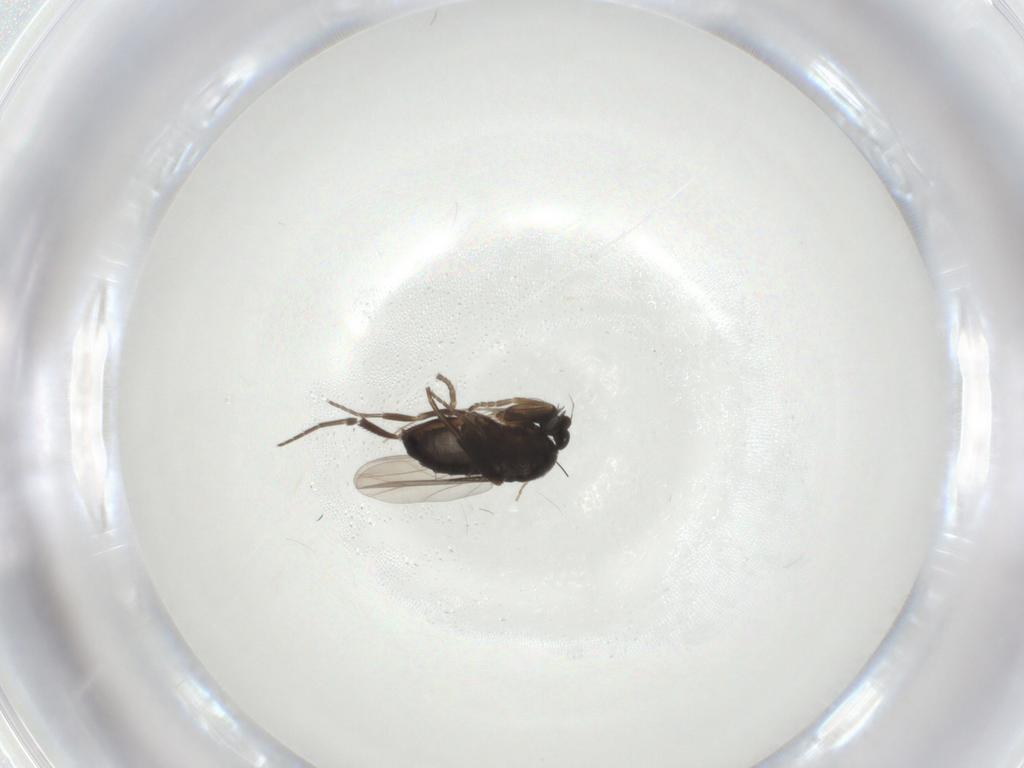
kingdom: Animalia
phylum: Arthropoda
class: Insecta
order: Diptera
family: Phoridae
